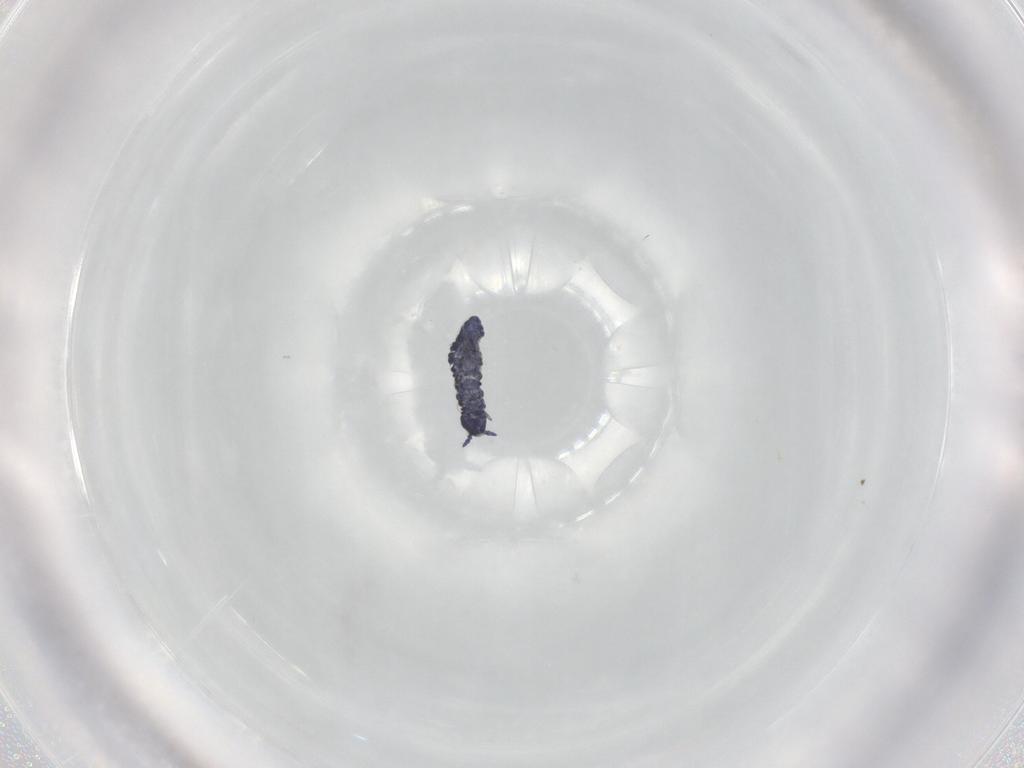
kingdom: Animalia
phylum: Arthropoda
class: Collembola
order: Poduromorpha
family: Hypogastruridae
